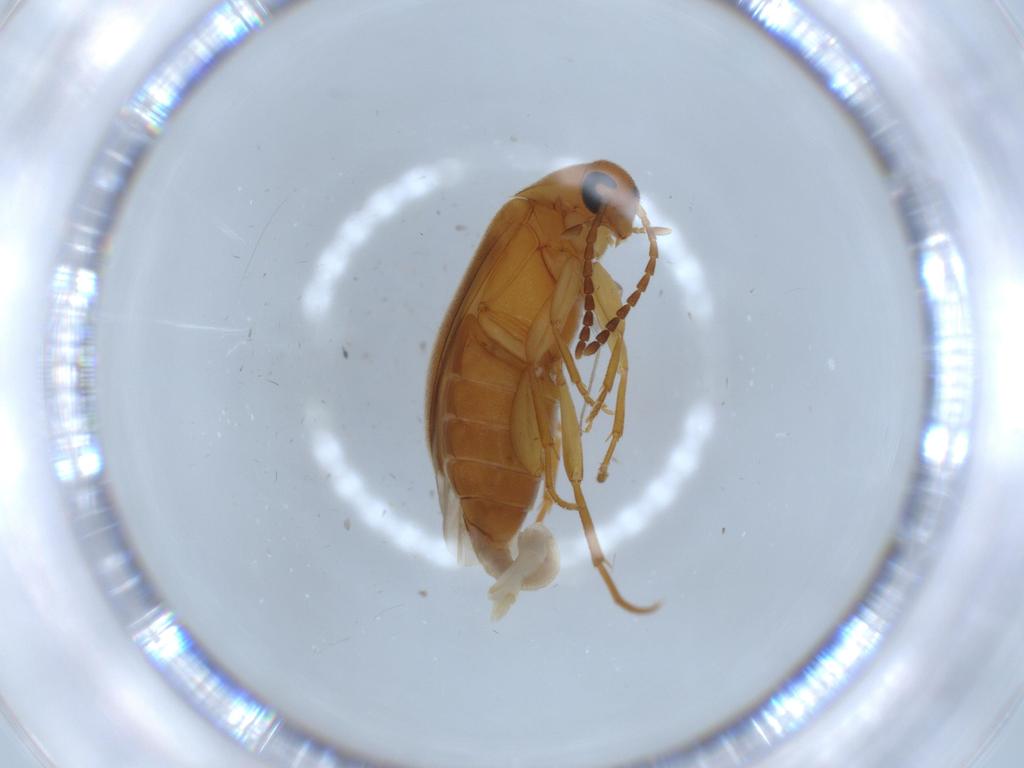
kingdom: Animalia
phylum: Arthropoda
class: Insecta
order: Coleoptera
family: Scraptiidae
